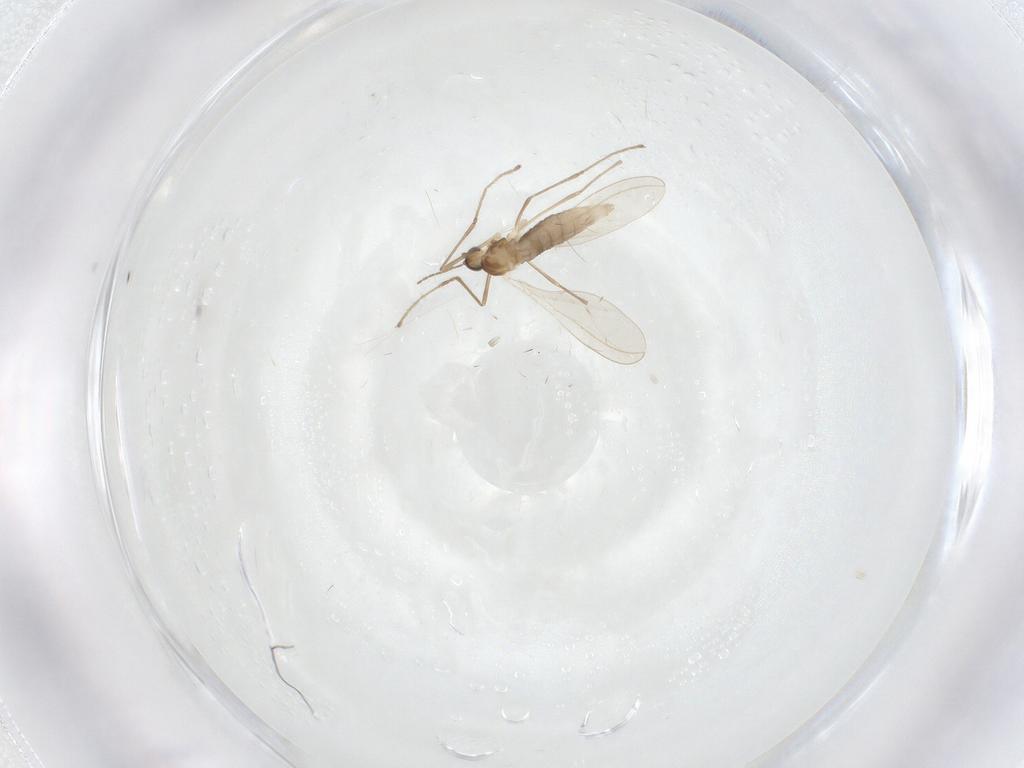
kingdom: Animalia
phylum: Arthropoda
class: Insecta
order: Diptera
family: Cecidomyiidae
